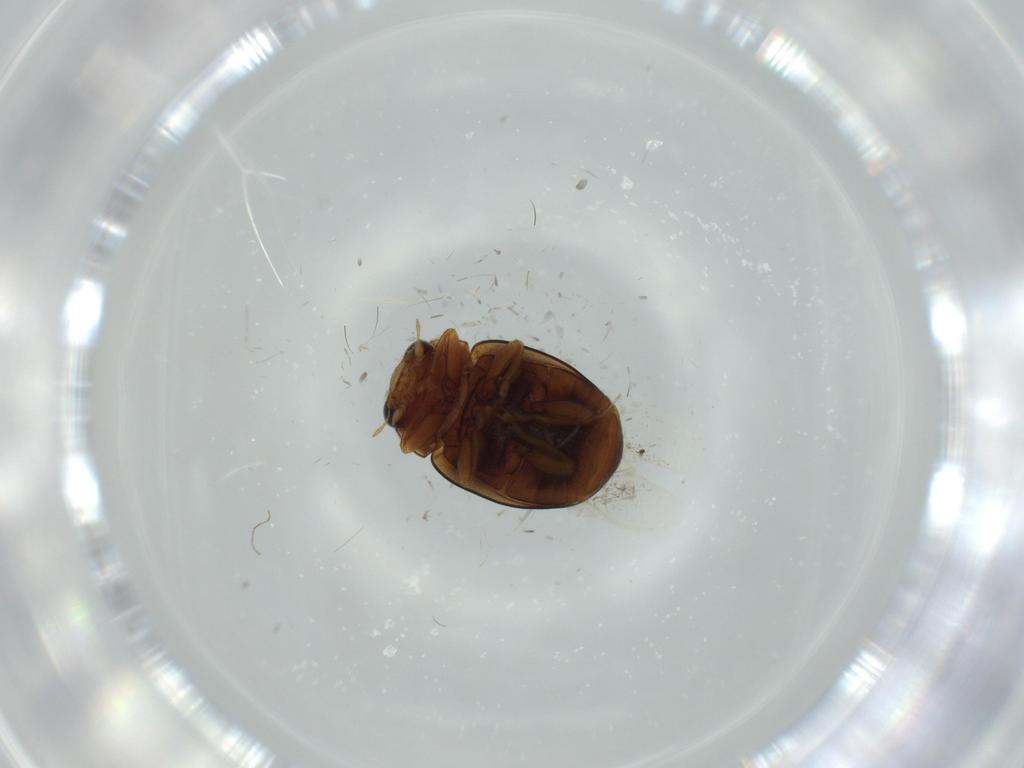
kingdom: Animalia
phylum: Arthropoda
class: Insecta
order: Coleoptera
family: Coccinellidae
